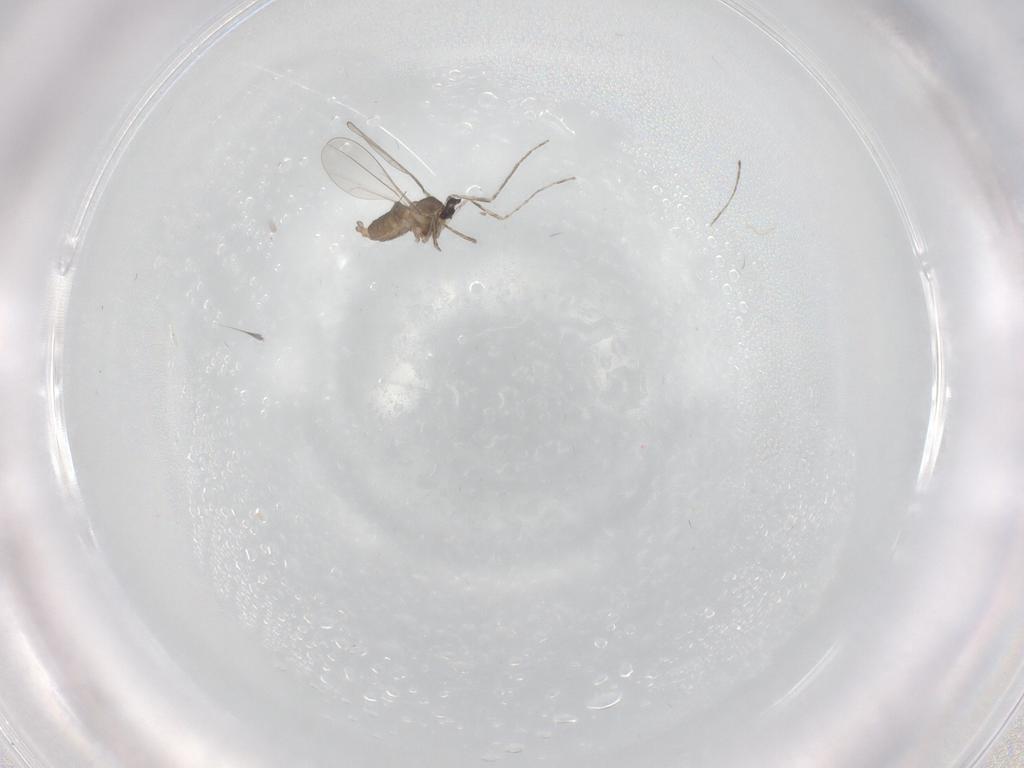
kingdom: Animalia
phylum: Arthropoda
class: Insecta
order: Diptera
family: Cecidomyiidae
